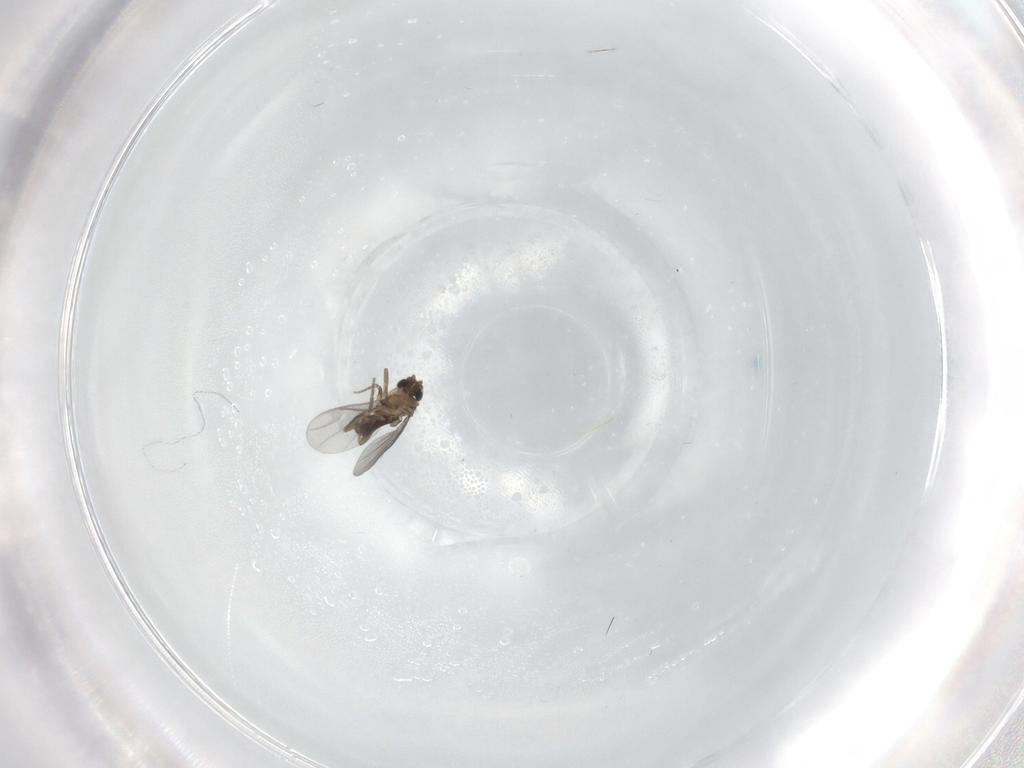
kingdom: Animalia
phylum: Arthropoda
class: Insecta
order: Diptera
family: Cecidomyiidae
